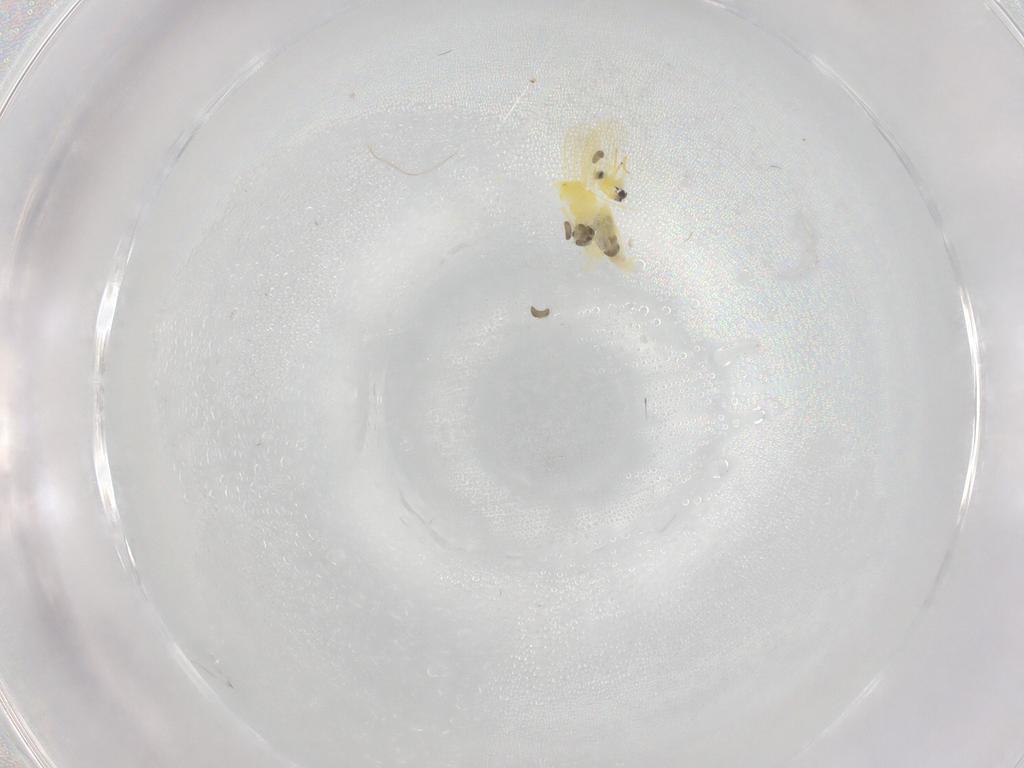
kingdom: Animalia
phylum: Arthropoda
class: Insecta
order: Hemiptera
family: Aleyrodidae
